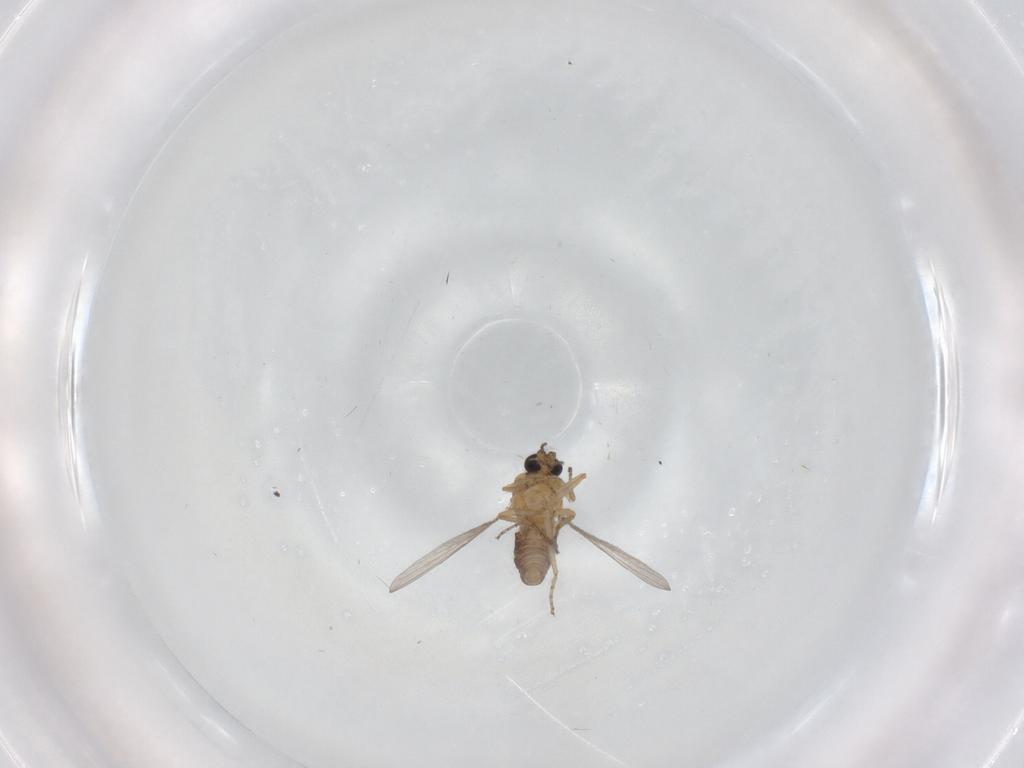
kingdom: Animalia
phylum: Arthropoda
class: Insecta
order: Diptera
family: Ceratopogonidae
